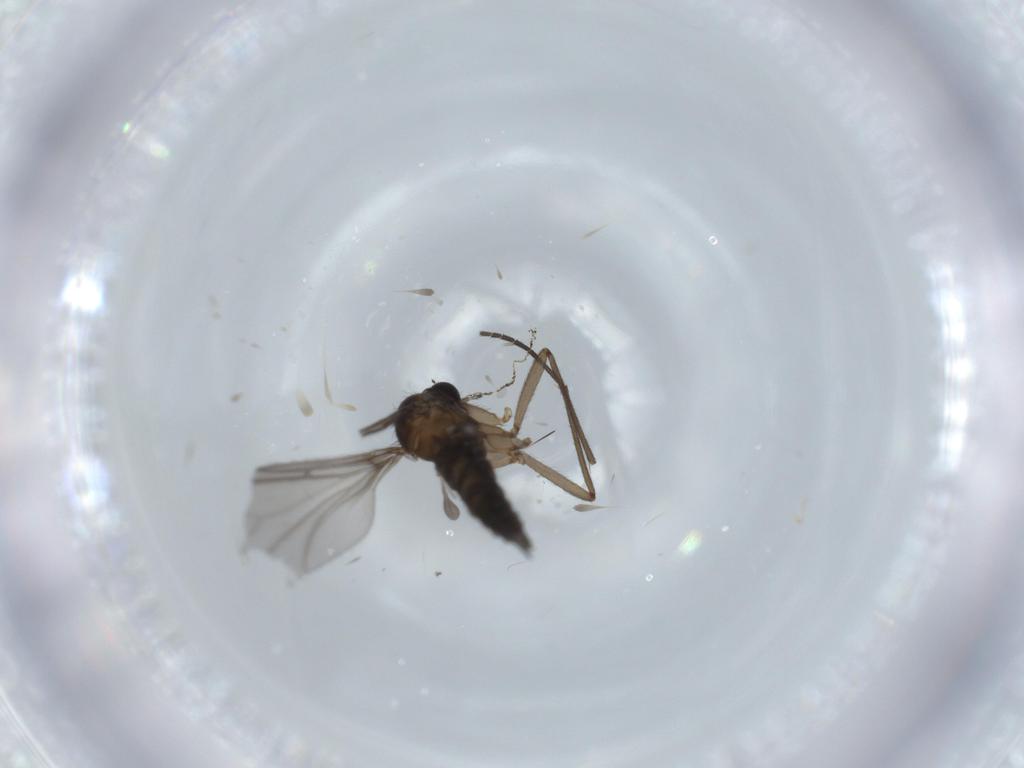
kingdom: Animalia
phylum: Arthropoda
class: Insecta
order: Diptera
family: Sciaridae
